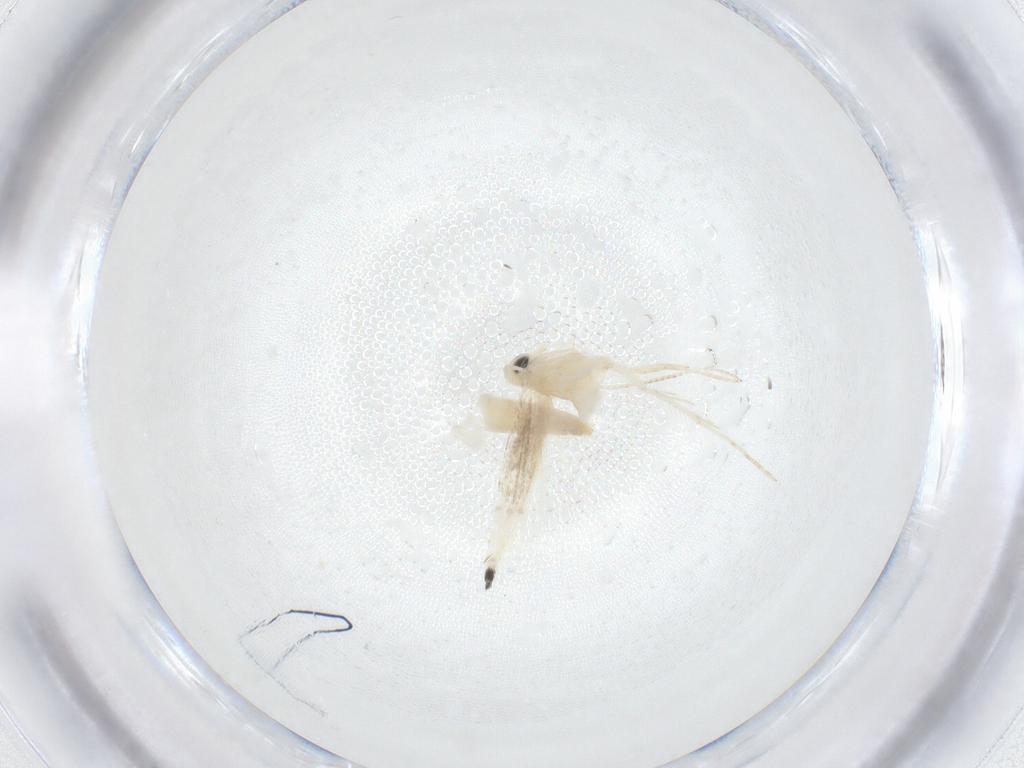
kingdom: Animalia
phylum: Arthropoda
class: Insecta
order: Lepidoptera
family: Gracillariidae
